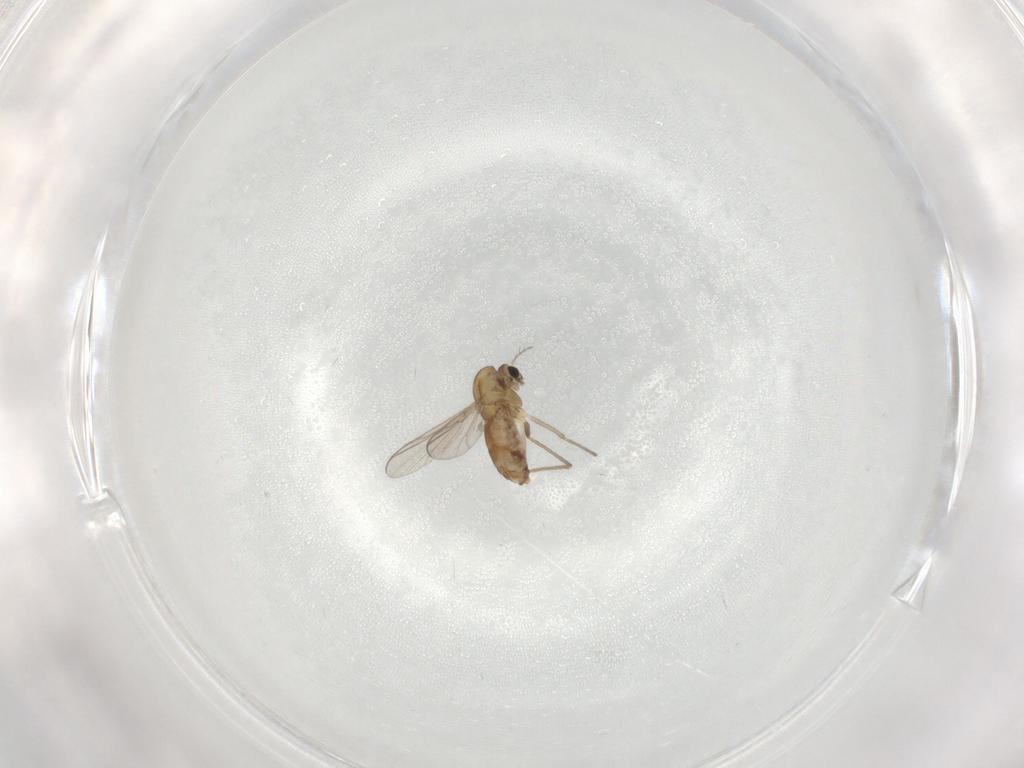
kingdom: Animalia
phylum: Arthropoda
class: Insecta
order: Diptera
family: Chironomidae
